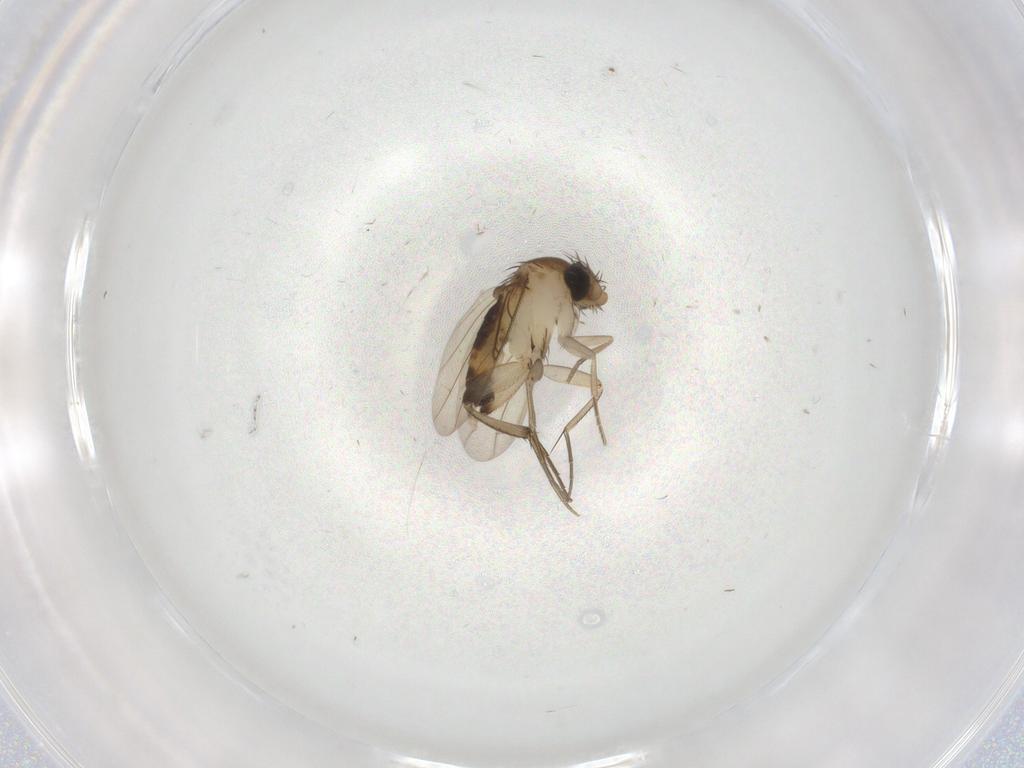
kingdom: Animalia
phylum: Arthropoda
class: Insecta
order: Diptera
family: Phoridae
